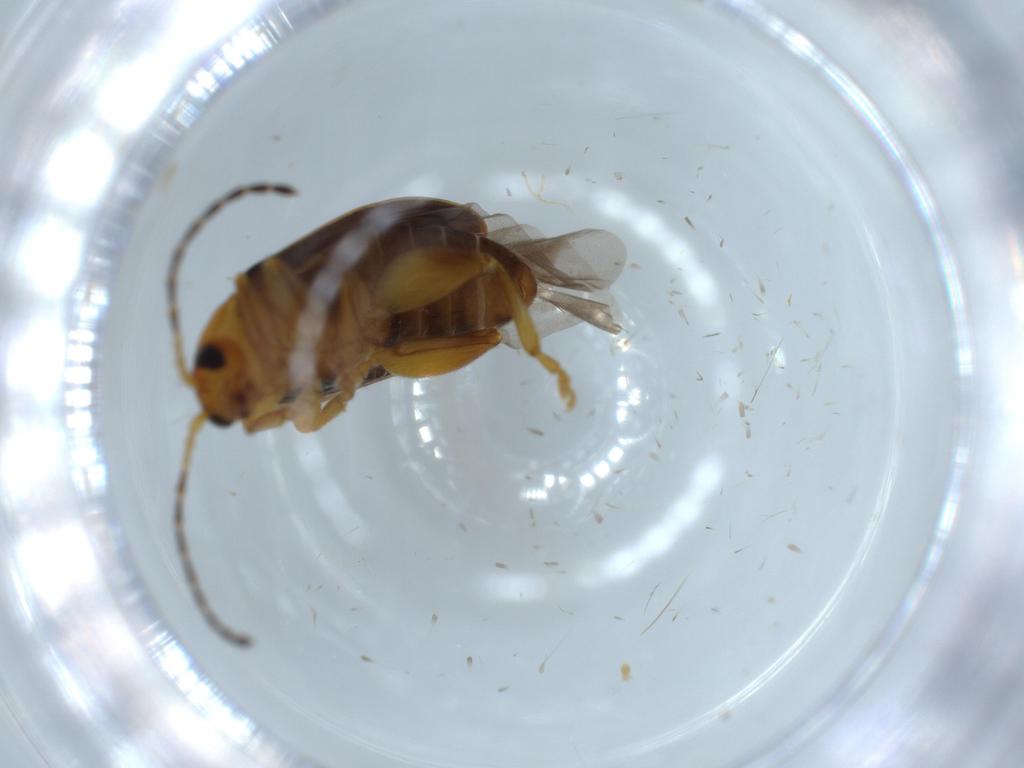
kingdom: Animalia
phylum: Arthropoda
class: Insecta
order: Coleoptera
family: Chrysomelidae
